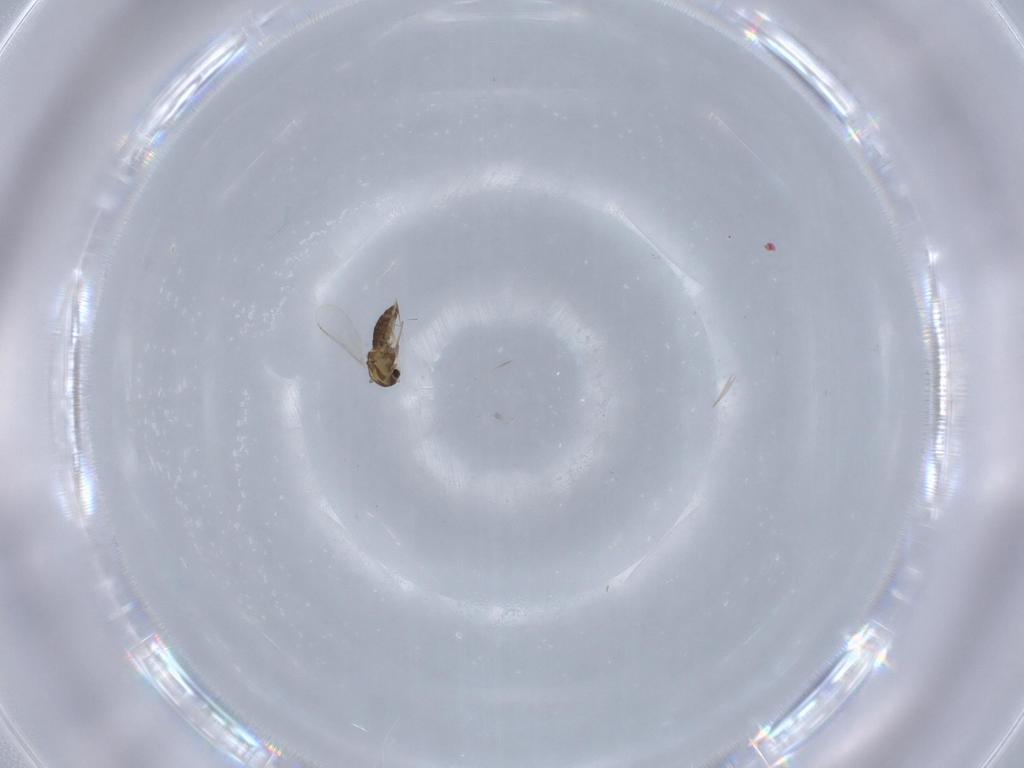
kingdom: Animalia
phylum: Arthropoda
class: Insecta
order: Diptera
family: Chironomidae
